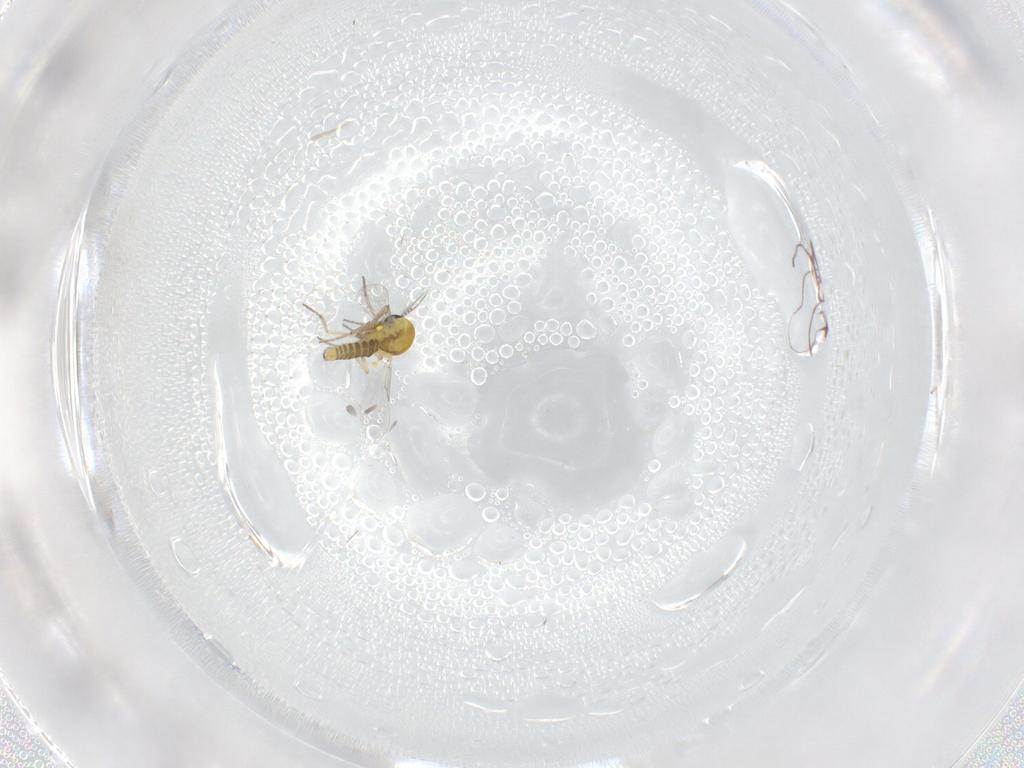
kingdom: Animalia
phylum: Arthropoda
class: Insecta
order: Diptera
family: Ceratopogonidae
